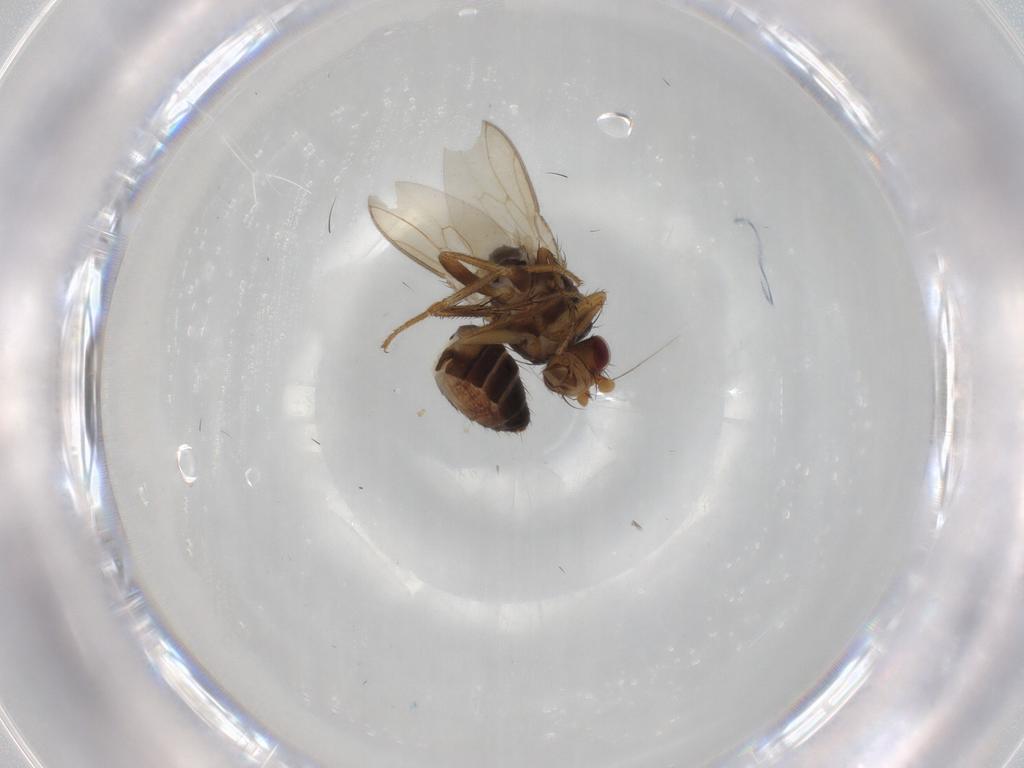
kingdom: Animalia
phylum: Arthropoda
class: Insecta
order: Diptera
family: Sphaeroceridae
